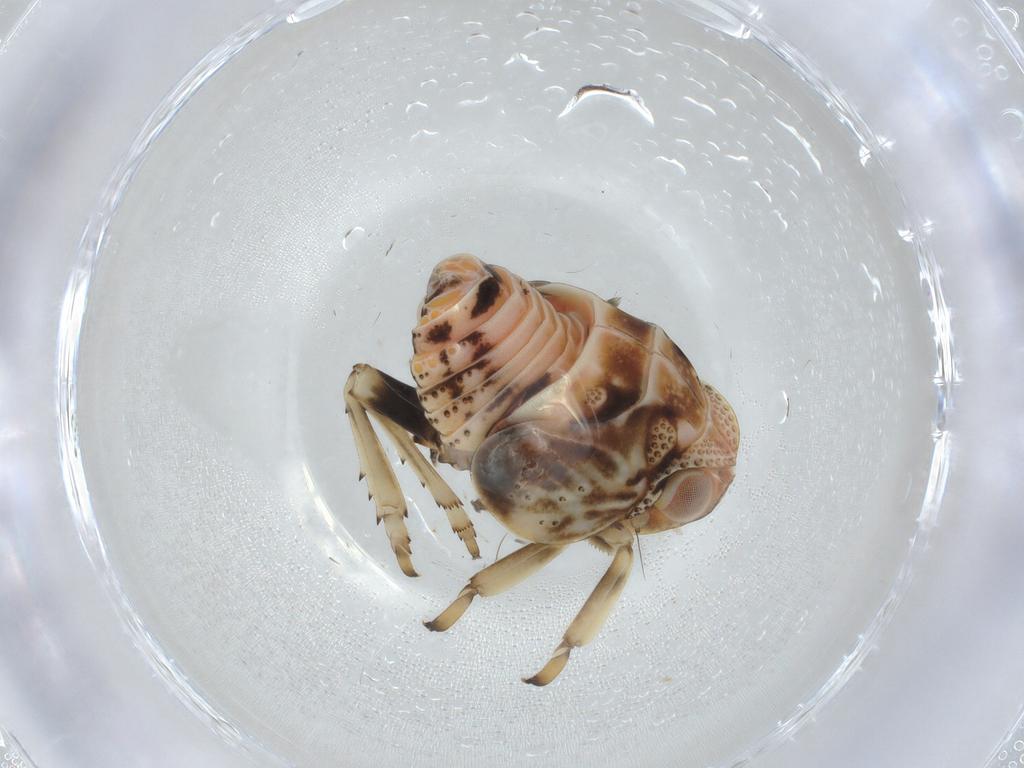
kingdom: Animalia
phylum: Arthropoda
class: Insecta
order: Hemiptera
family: Nogodinidae
